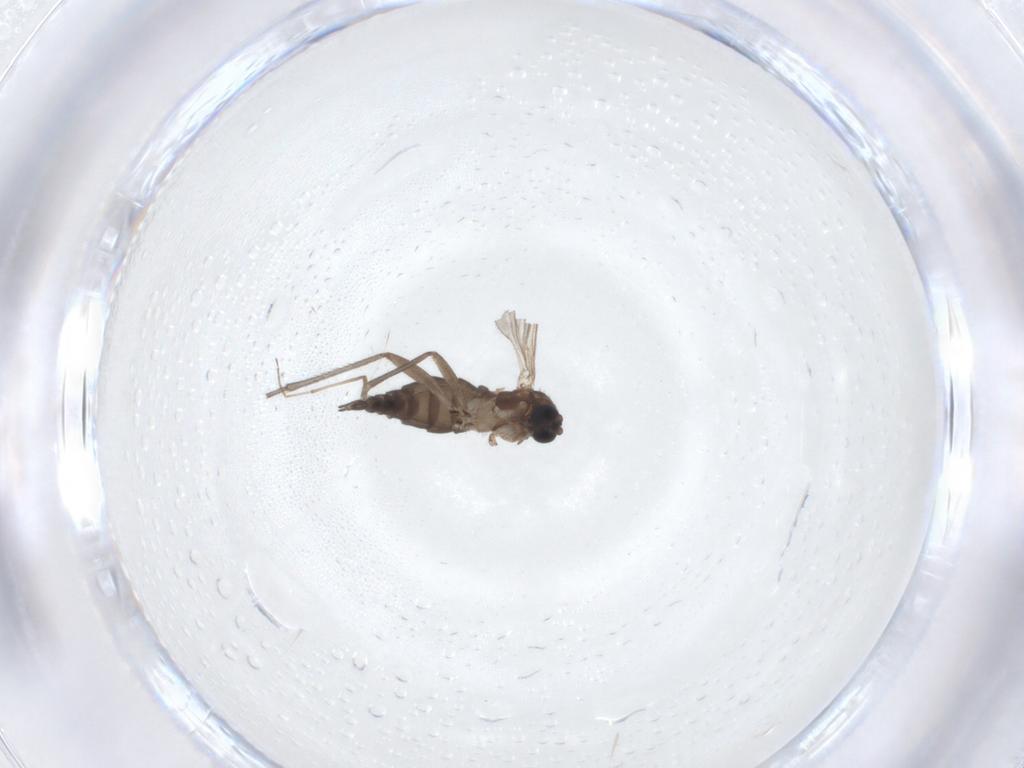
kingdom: Animalia
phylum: Arthropoda
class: Insecta
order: Diptera
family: Sciaridae
